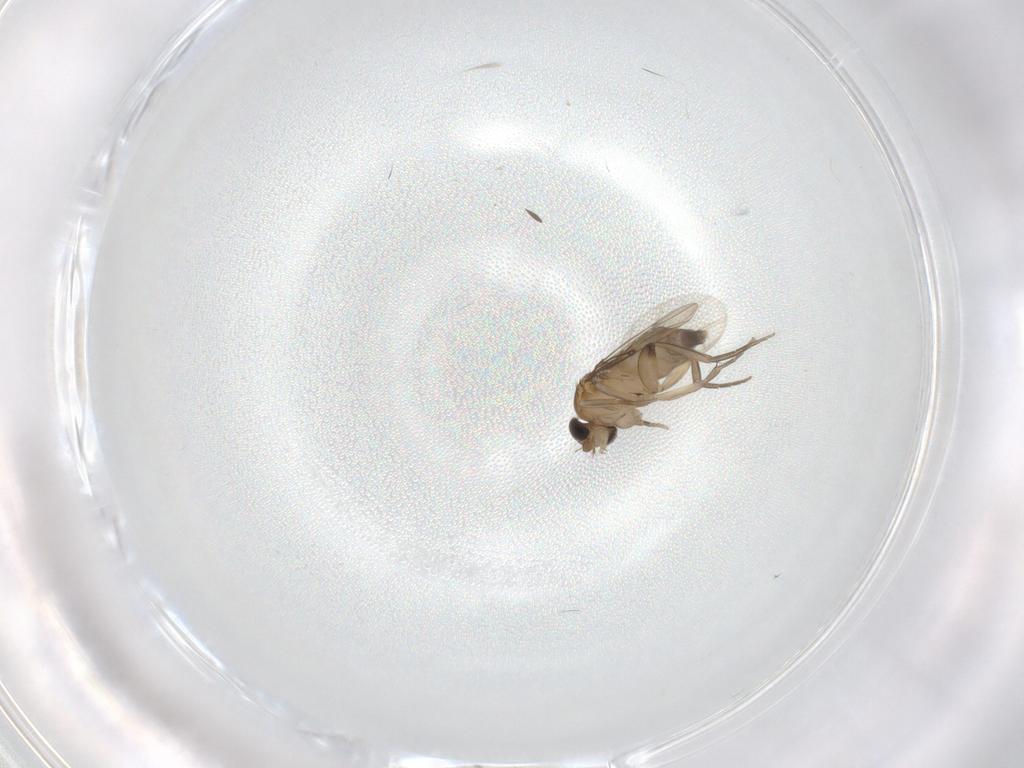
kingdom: Animalia
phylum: Arthropoda
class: Insecta
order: Diptera
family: Phoridae
